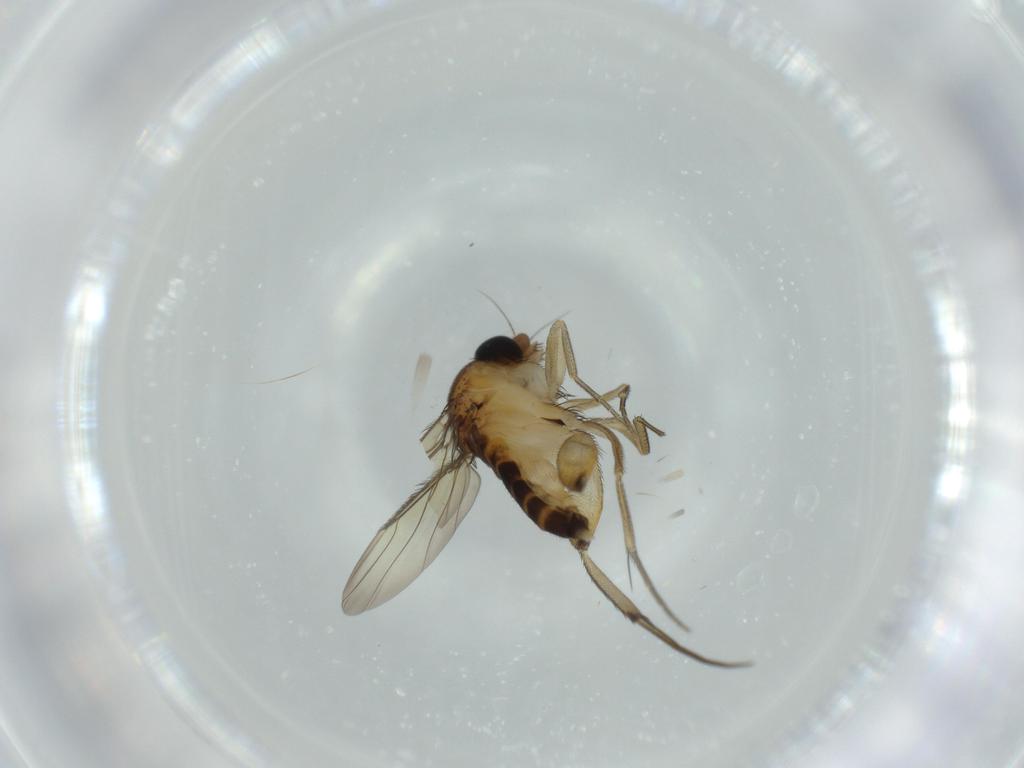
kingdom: Animalia
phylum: Arthropoda
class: Insecta
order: Diptera
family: Phoridae
